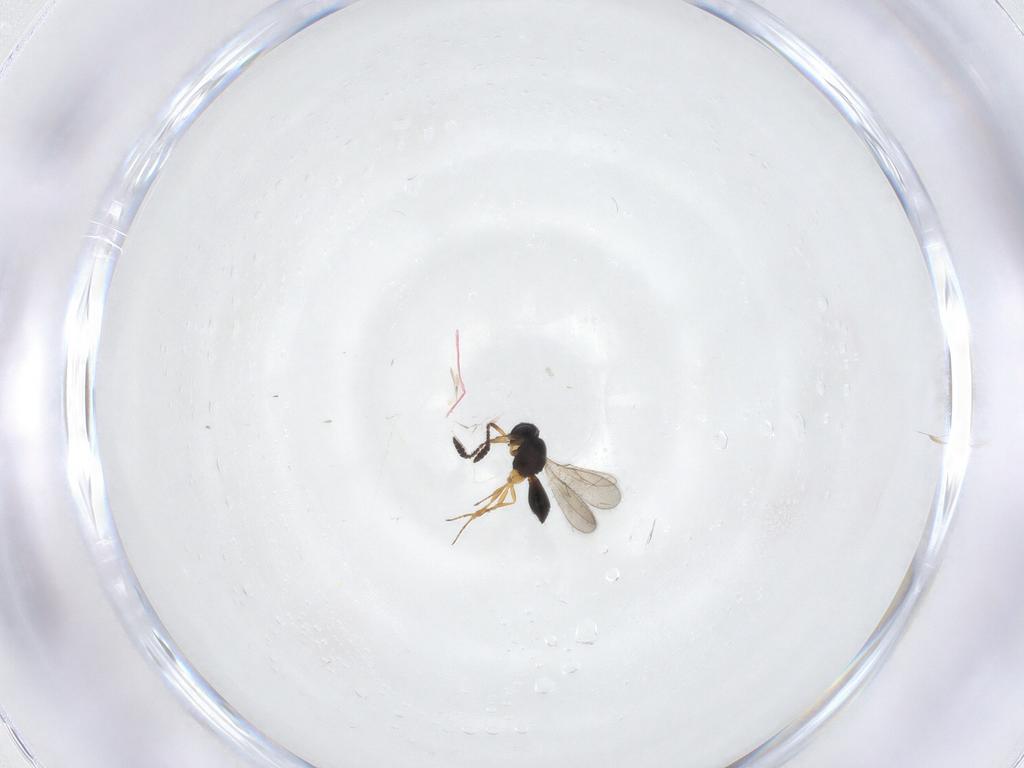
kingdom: Animalia
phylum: Arthropoda
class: Insecta
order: Hymenoptera
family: Scelionidae
